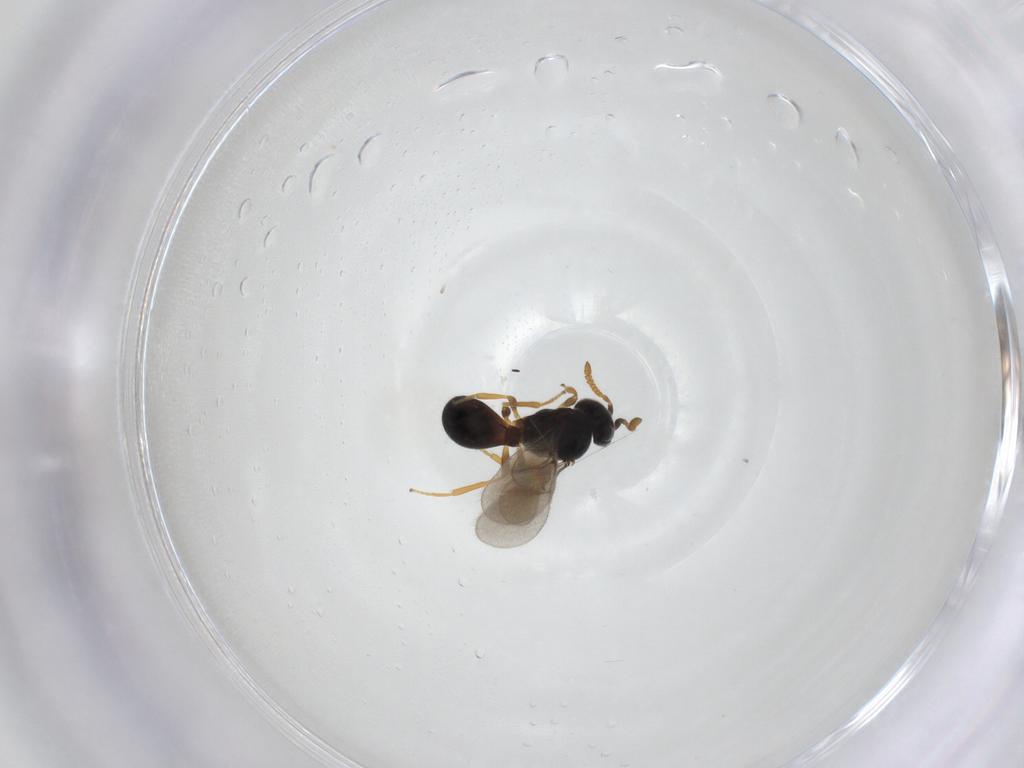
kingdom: Animalia
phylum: Arthropoda
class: Insecta
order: Hymenoptera
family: Scelionidae
